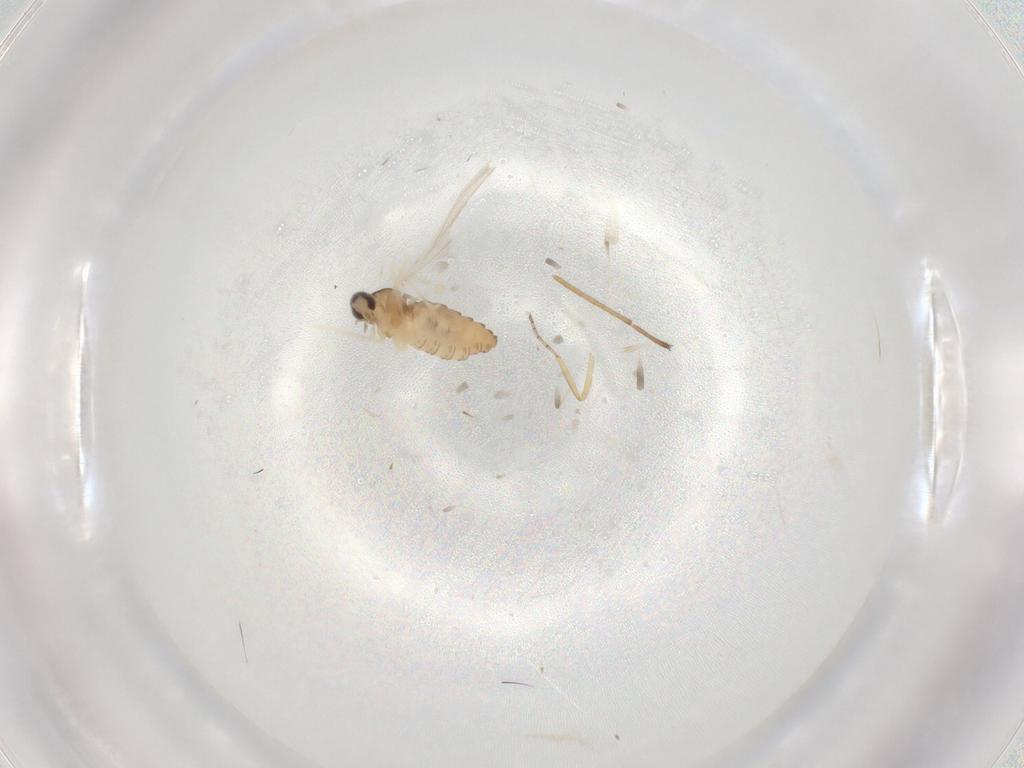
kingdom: Animalia
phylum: Arthropoda
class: Insecta
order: Diptera
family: Cecidomyiidae
